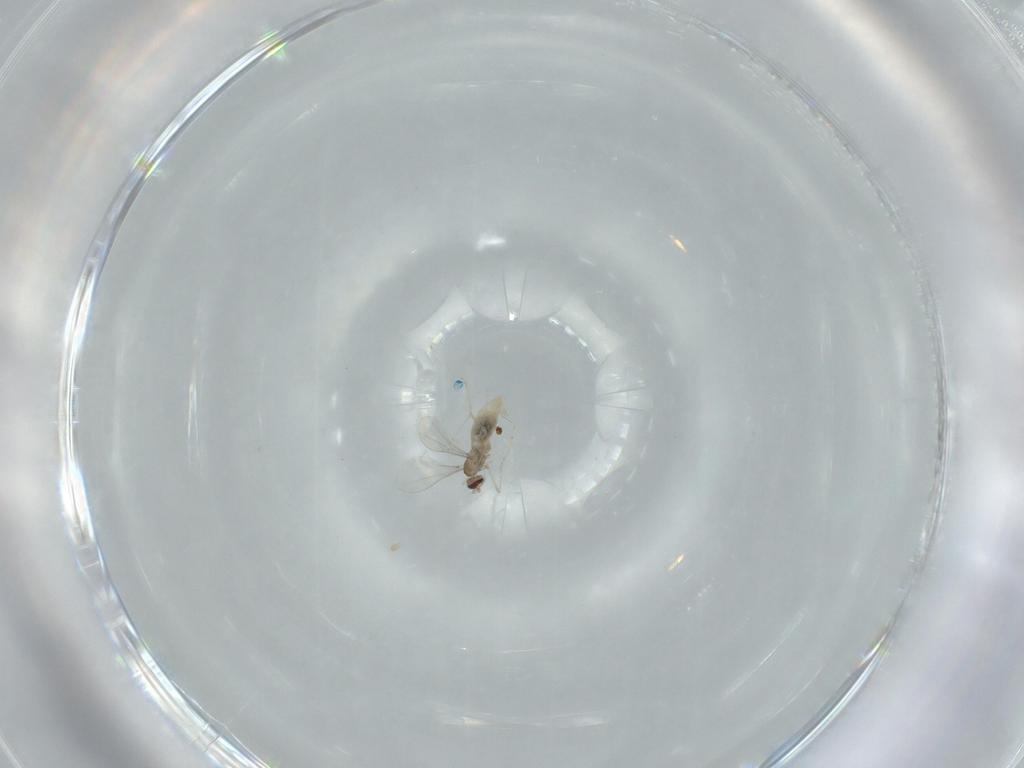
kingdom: Animalia
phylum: Arthropoda
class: Insecta
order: Diptera
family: Cecidomyiidae
